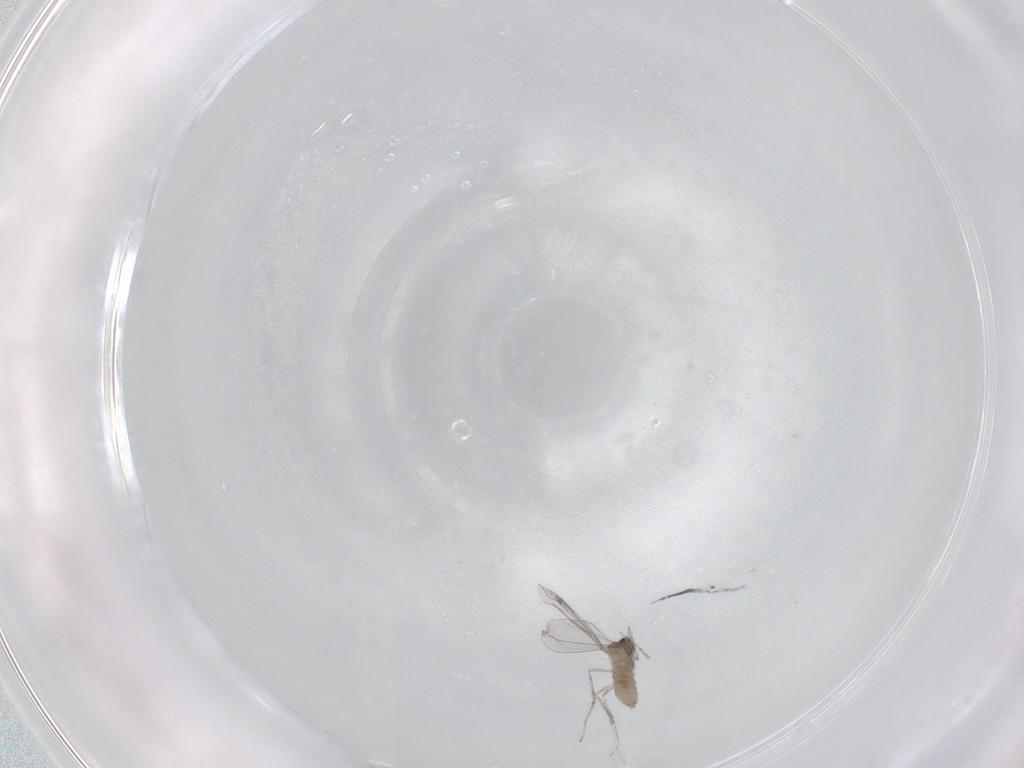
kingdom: Animalia
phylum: Arthropoda
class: Insecta
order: Diptera
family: Cecidomyiidae
